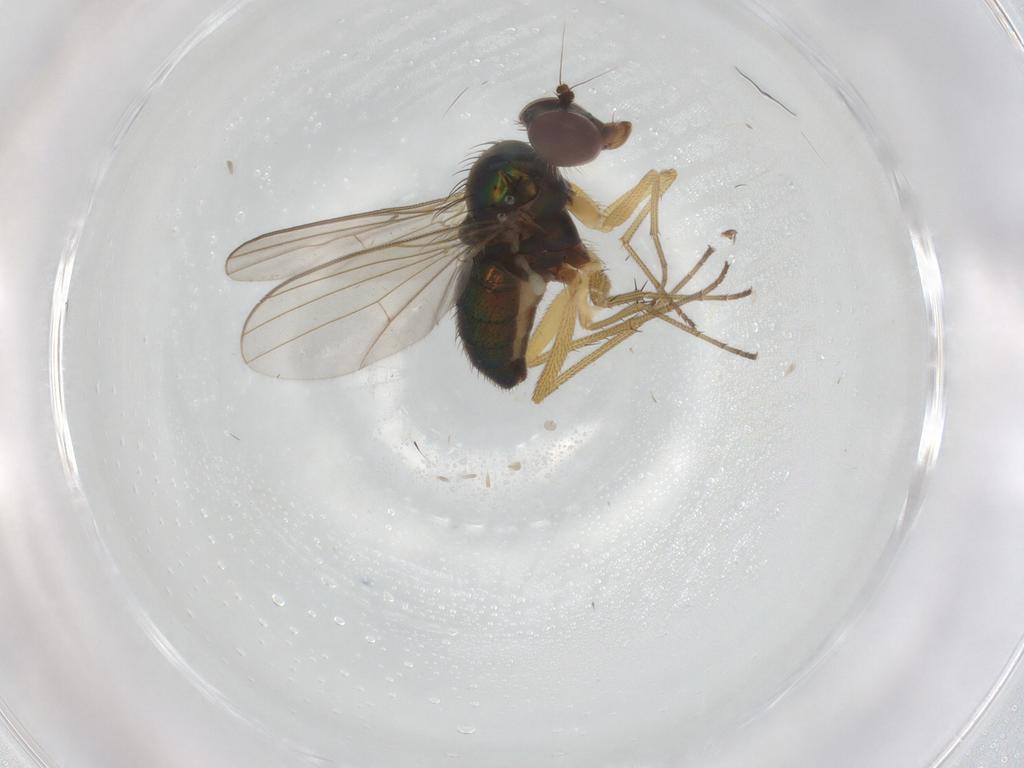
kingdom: Animalia
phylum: Arthropoda
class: Insecta
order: Diptera
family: Dolichopodidae
